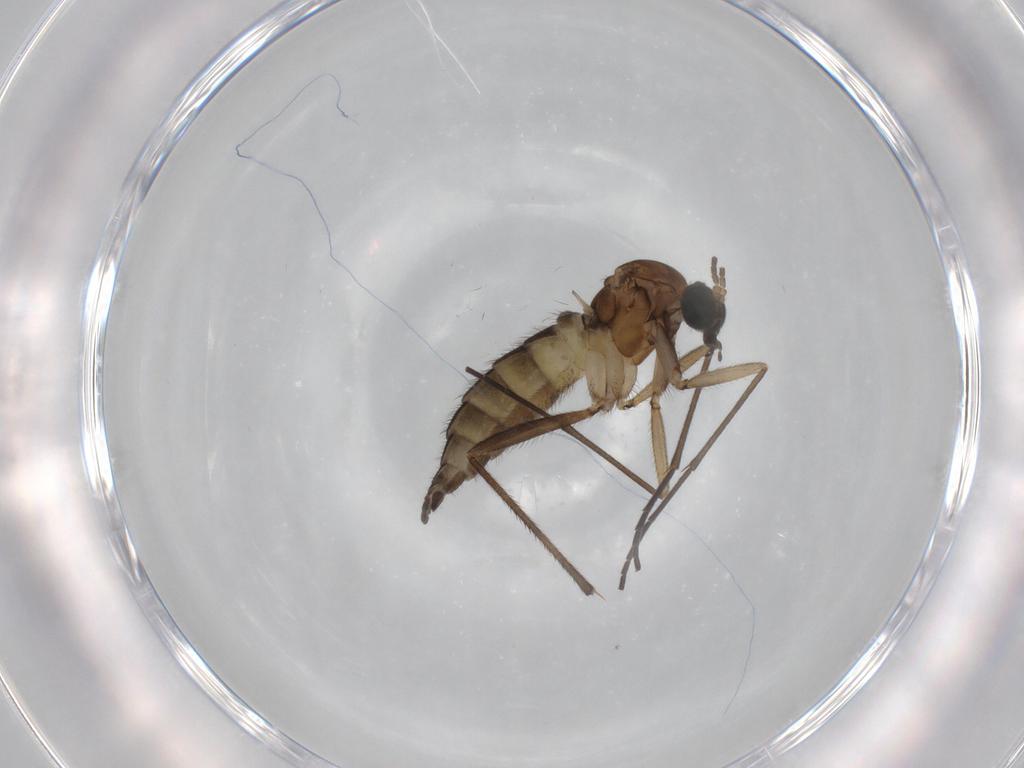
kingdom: Animalia
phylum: Arthropoda
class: Insecta
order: Diptera
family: Sciaridae
